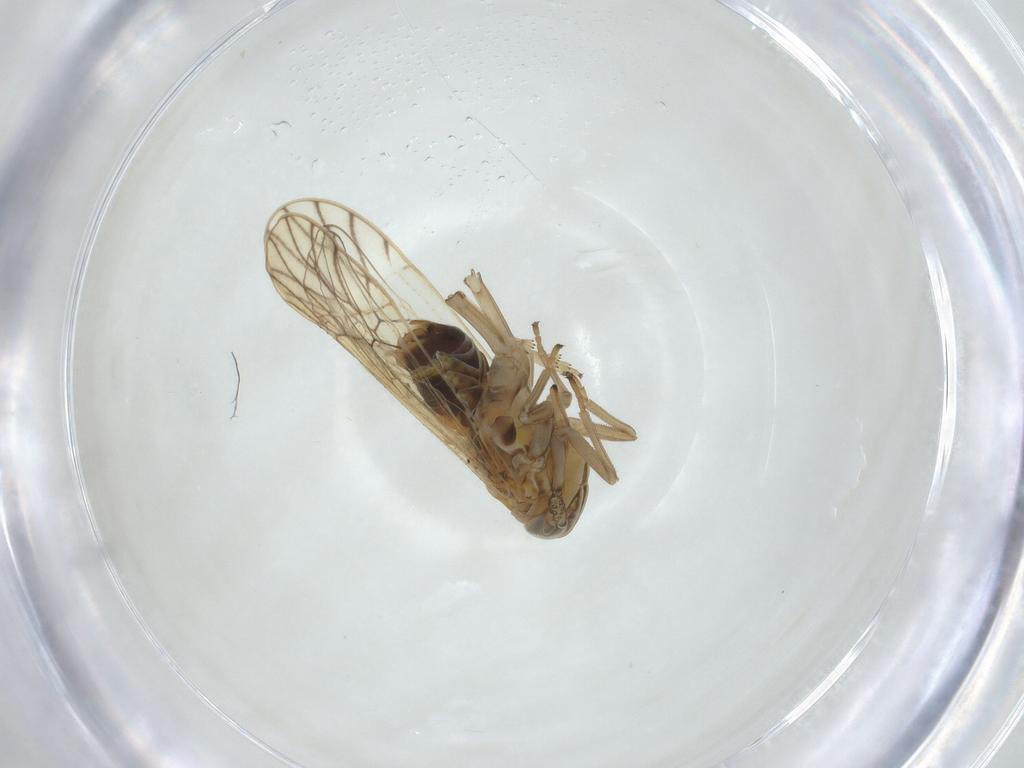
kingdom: Animalia
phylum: Arthropoda
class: Insecta
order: Hemiptera
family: Delphacidae
